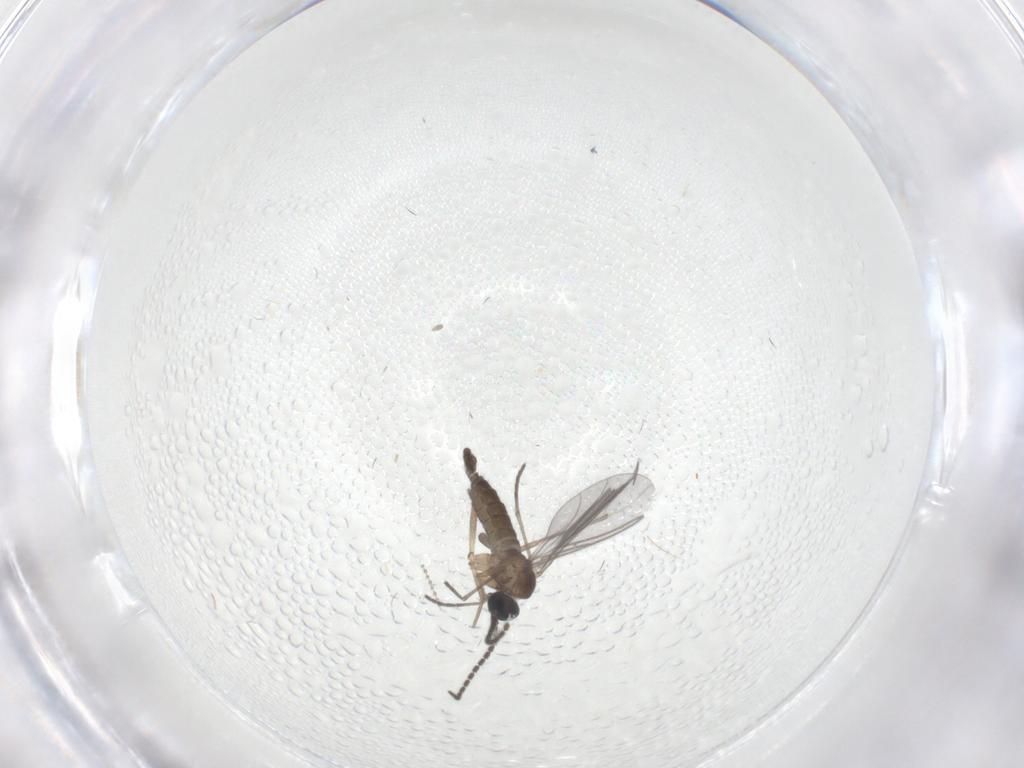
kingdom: Animalia
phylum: Arthropoda
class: Insecta
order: Diptera
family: Sciaridae
